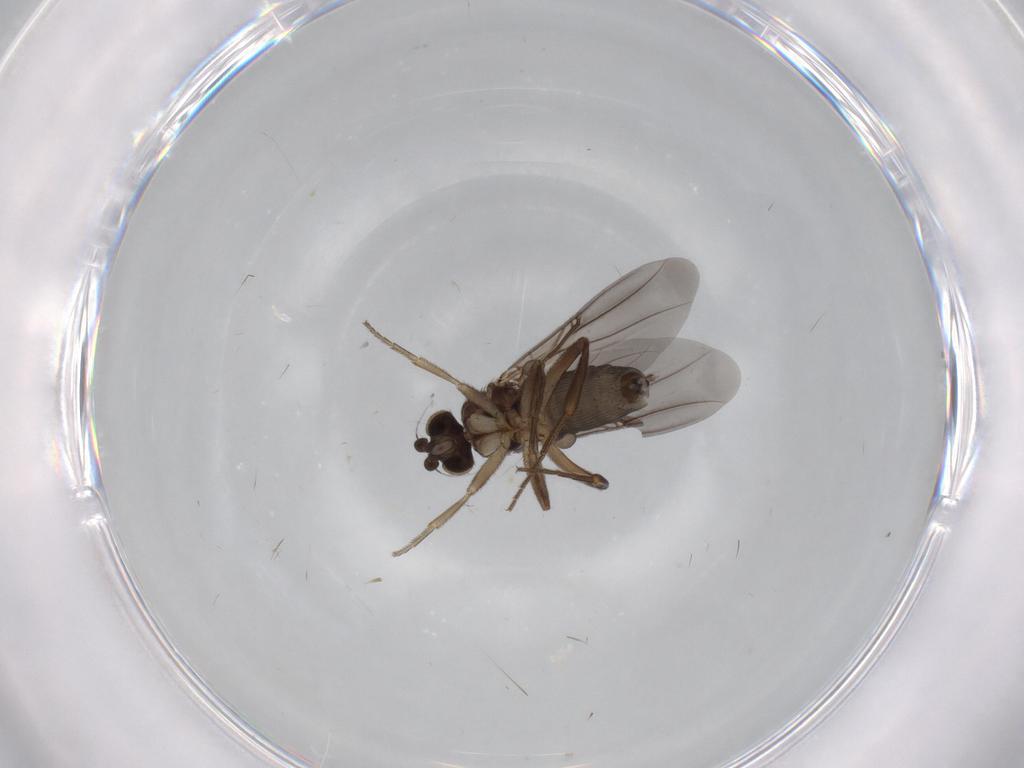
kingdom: Animalia
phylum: Arthropoda
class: Insecta
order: Diptera
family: Phoridae
